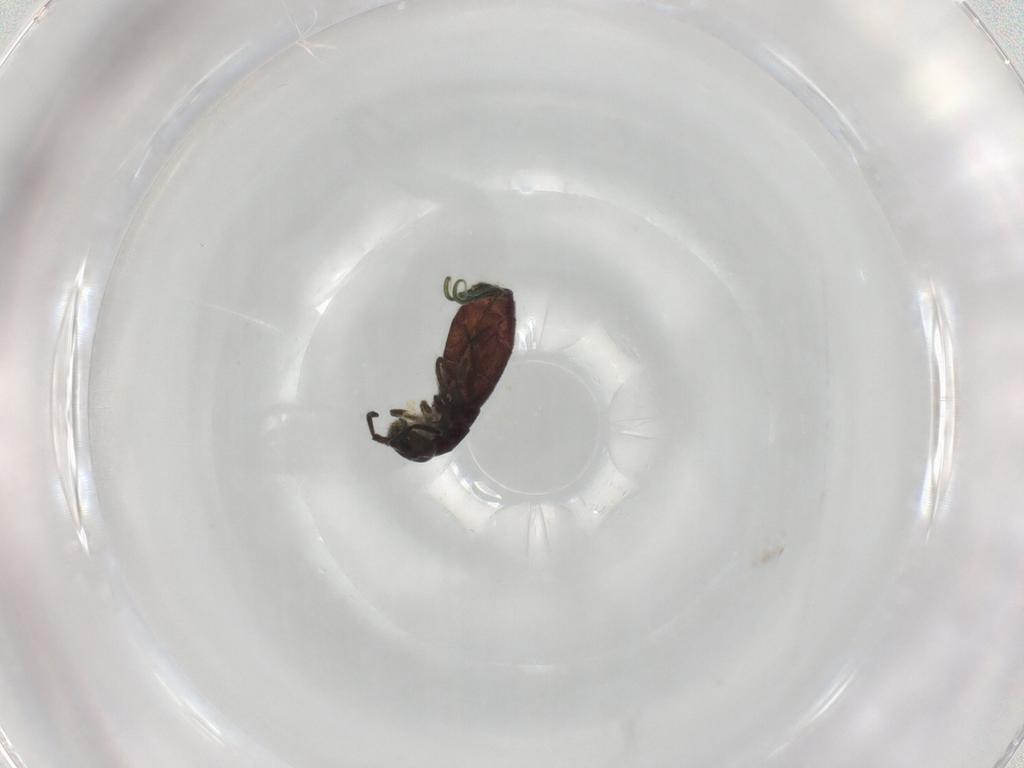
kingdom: Animalia
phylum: Arthropoda
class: Collembola
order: Entomobryomorpha
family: Isotomidae
